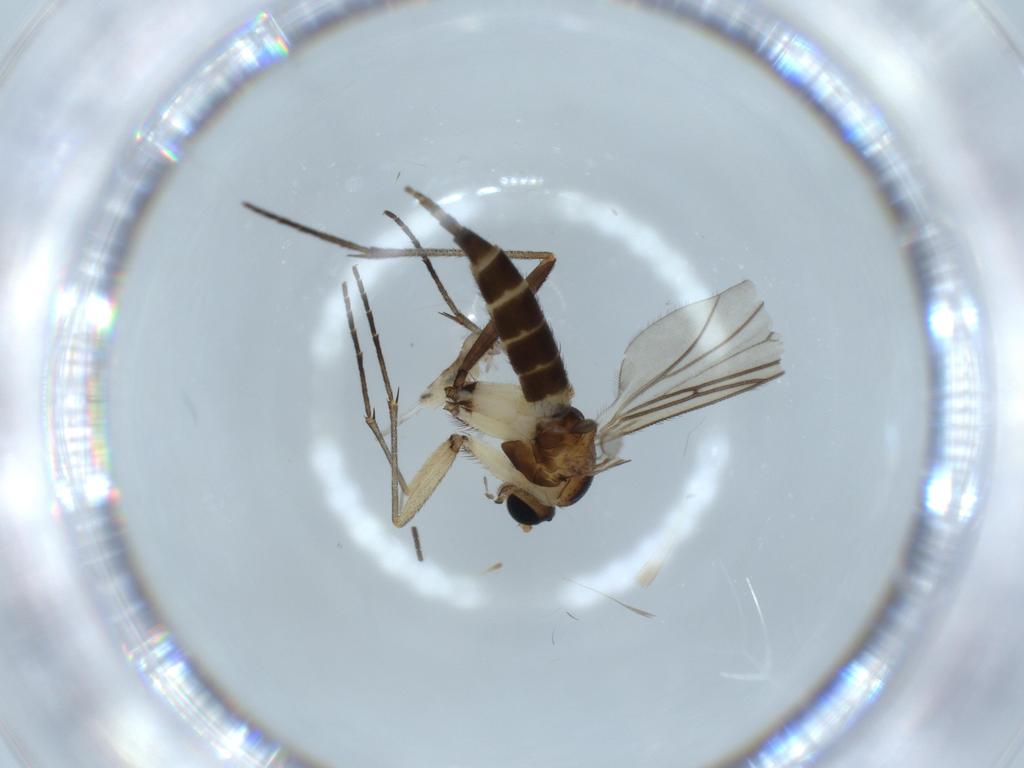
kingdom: Animalia
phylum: Arthropoda
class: Insecta
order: Diptera
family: Sciaridae
